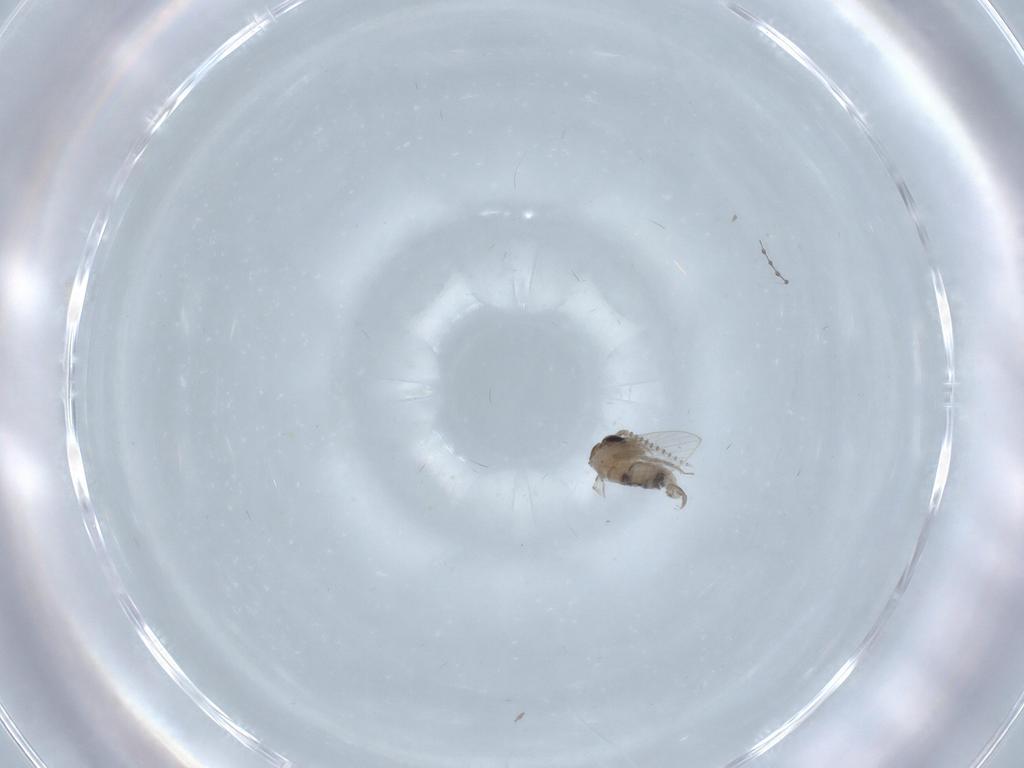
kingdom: Animalia
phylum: Arthropoda
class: Insecta
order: Diptera
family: Psychodidae
